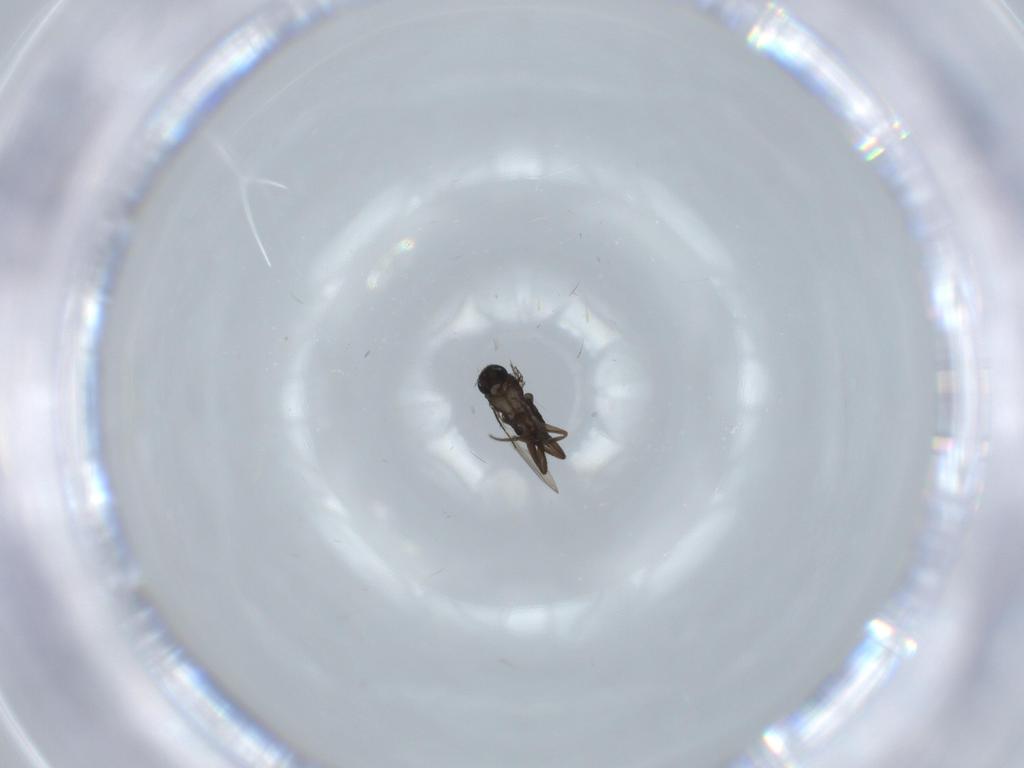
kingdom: Animalia
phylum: Arthropoda
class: Insecta
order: Diptera
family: Phoridae
